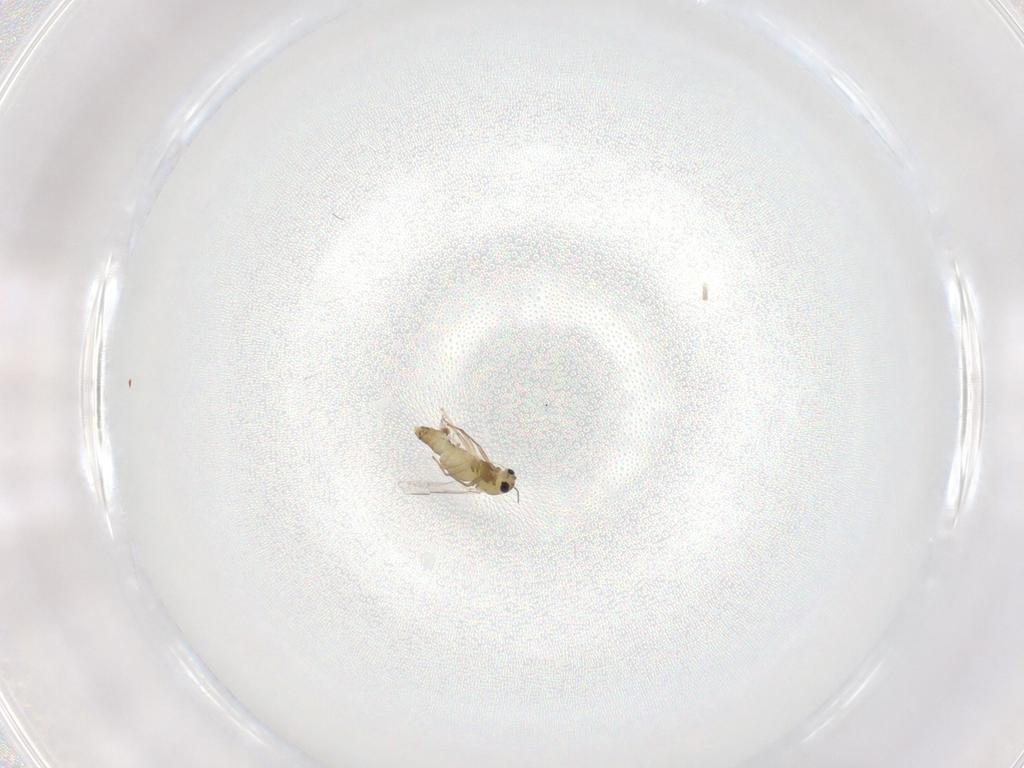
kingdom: Animalia
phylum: Arthropoda
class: Insecta
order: Diptera
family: Chironomidae
